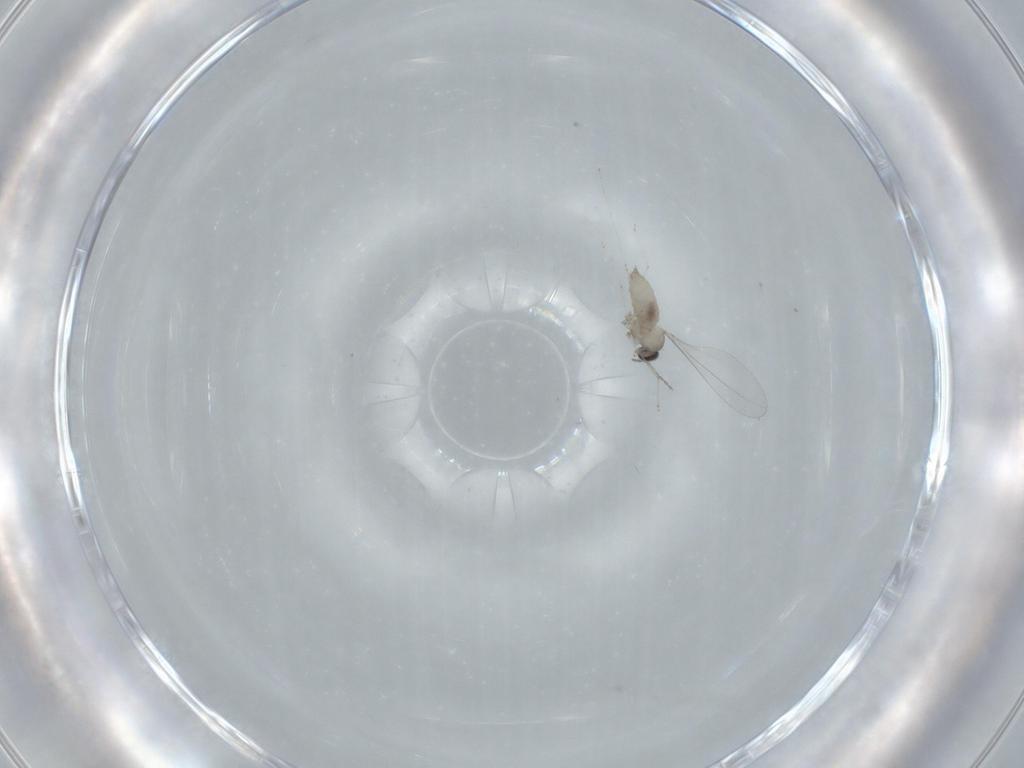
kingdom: Animalia
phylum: Arthropoda
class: Insecta
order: Diptera
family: Cecidomyiidae
